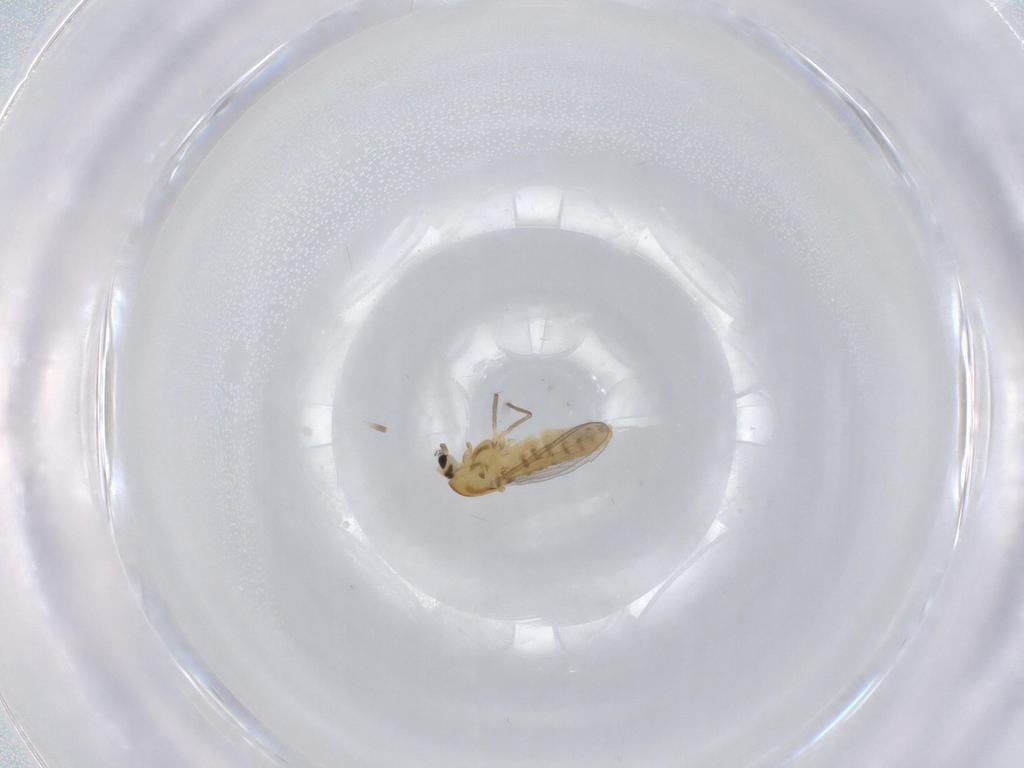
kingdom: Animalia
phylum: Arthropoda
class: Insecta
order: Diptera
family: Chironomidae
